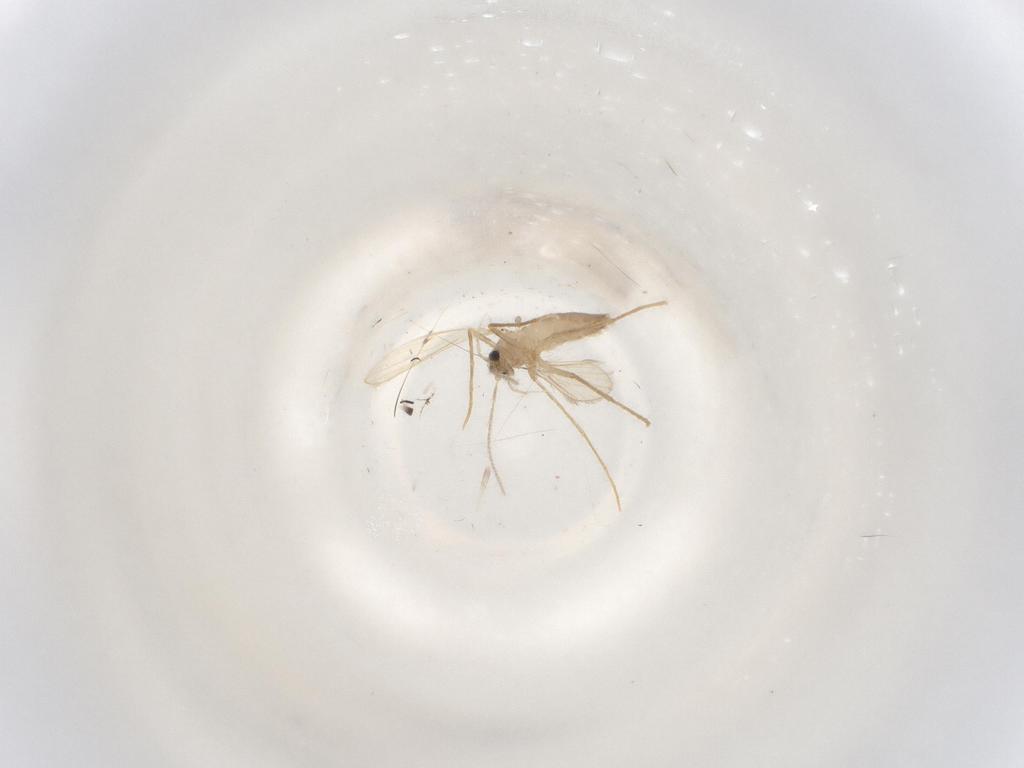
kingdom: Animalia
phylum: Arthropoda
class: Insecta
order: Diptera
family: Psychodidae
